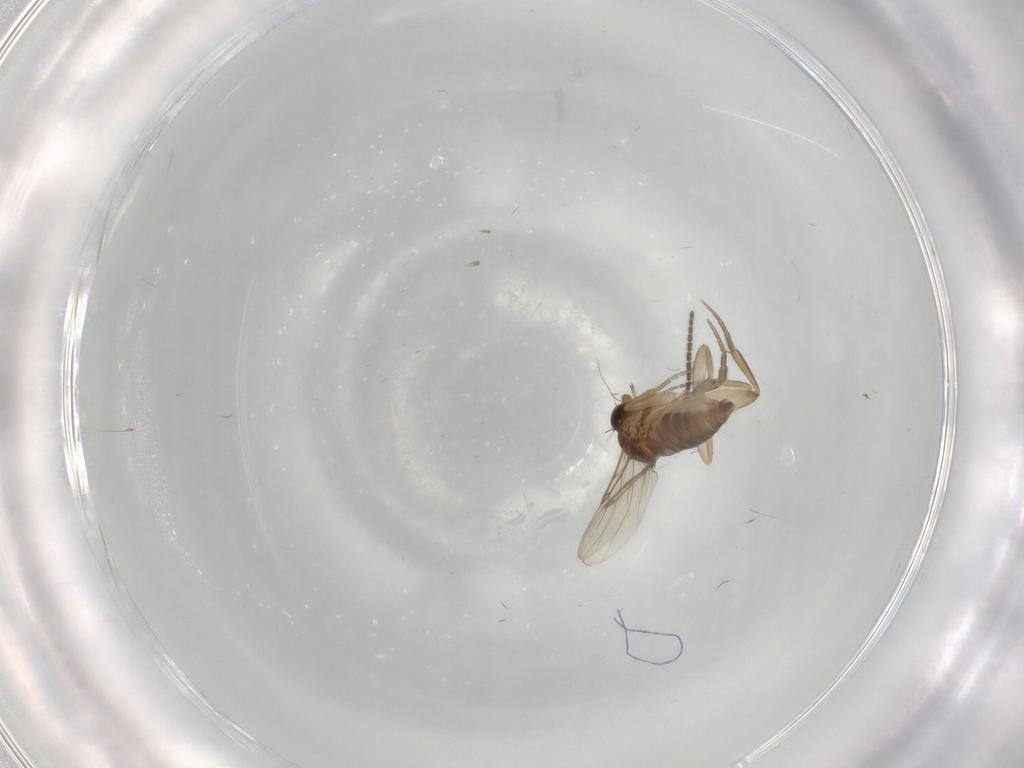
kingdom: Animalia
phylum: Arthropoda
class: Insecta
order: Diptera
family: Phoridae
